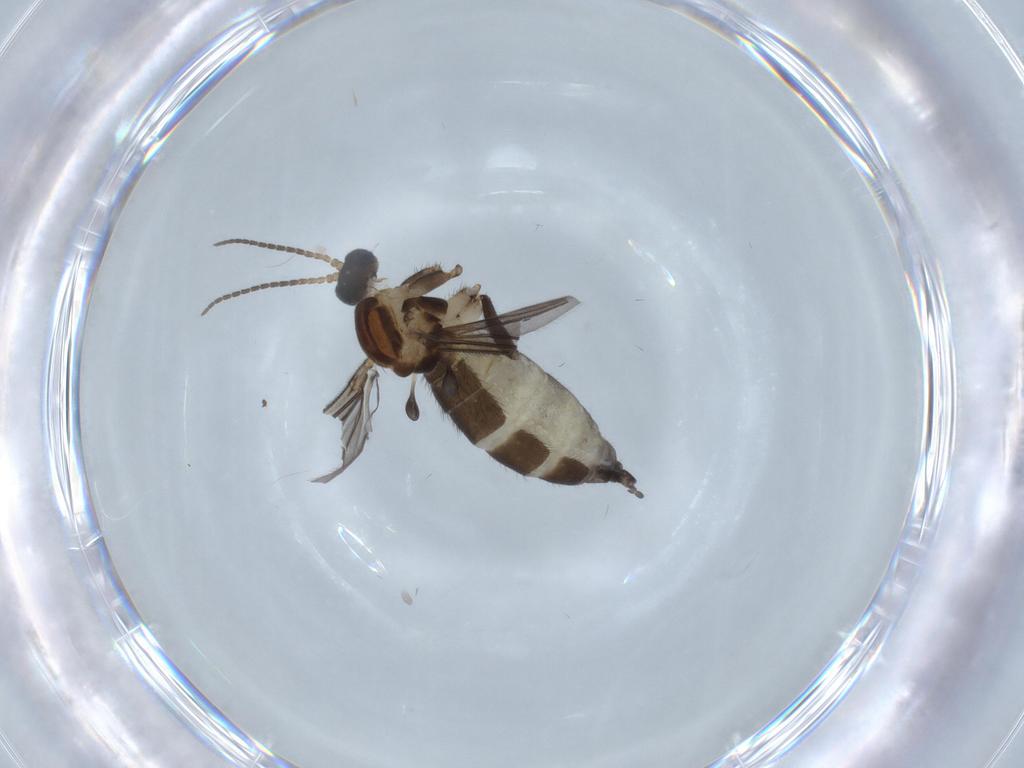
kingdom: Animalia
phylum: Arthropoda
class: Insecta
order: Diptera
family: Sciaridae
